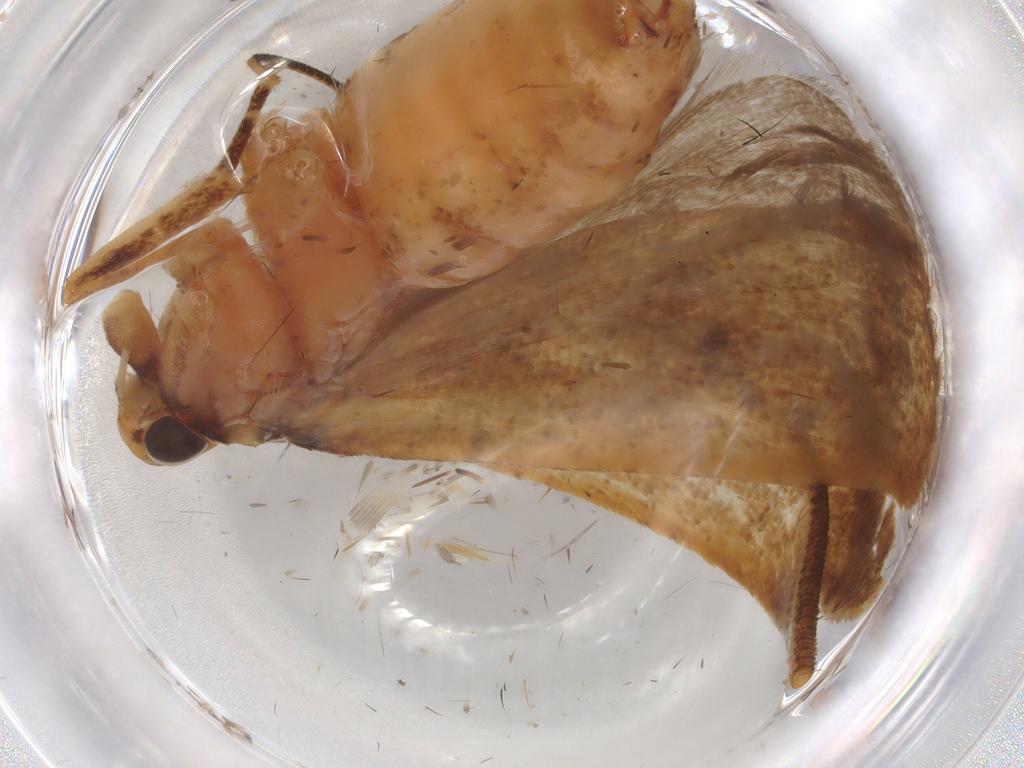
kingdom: Animalia
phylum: Arthropoda
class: Insecta
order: Lepidoptera
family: Gelechiidae
